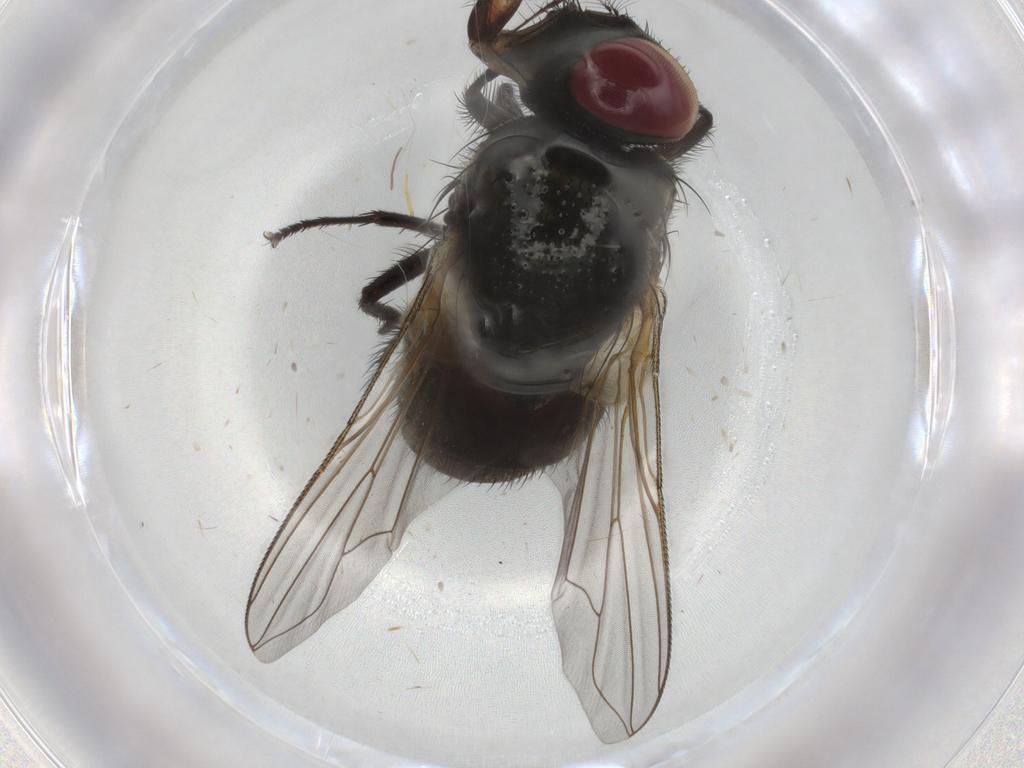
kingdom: Animalia
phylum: Arthropoda
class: Insecta
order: Diptera
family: Muscidae
